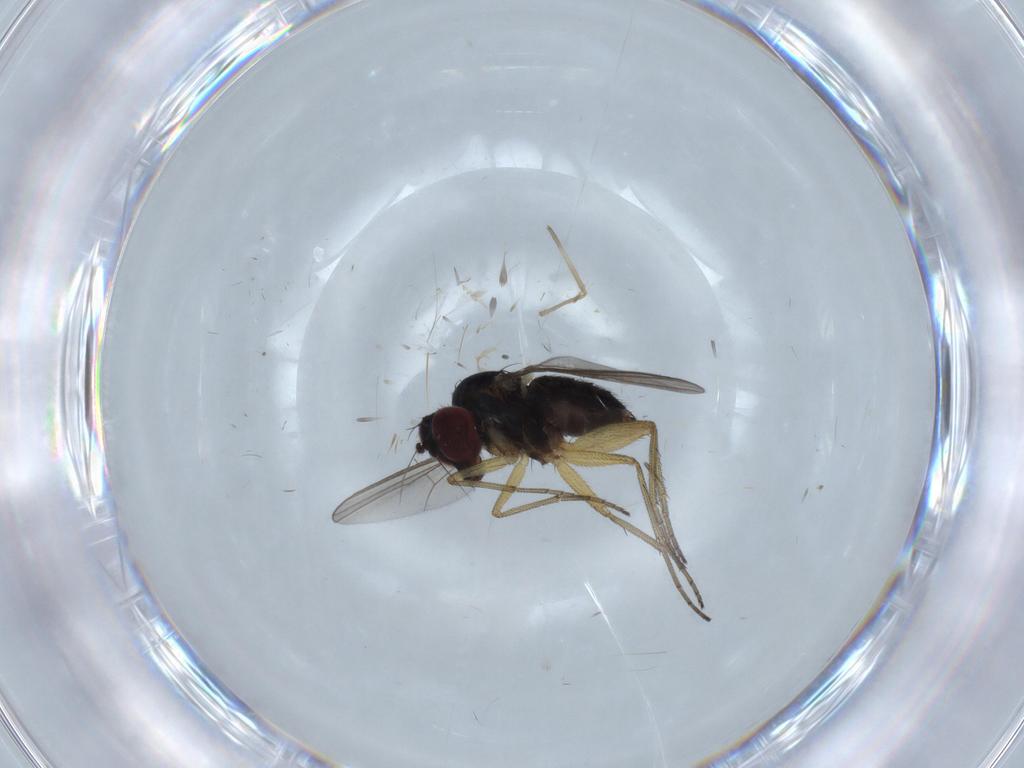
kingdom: Animalia
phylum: Arthropoda
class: Insecta
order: Diptera
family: Dolichopodidae
